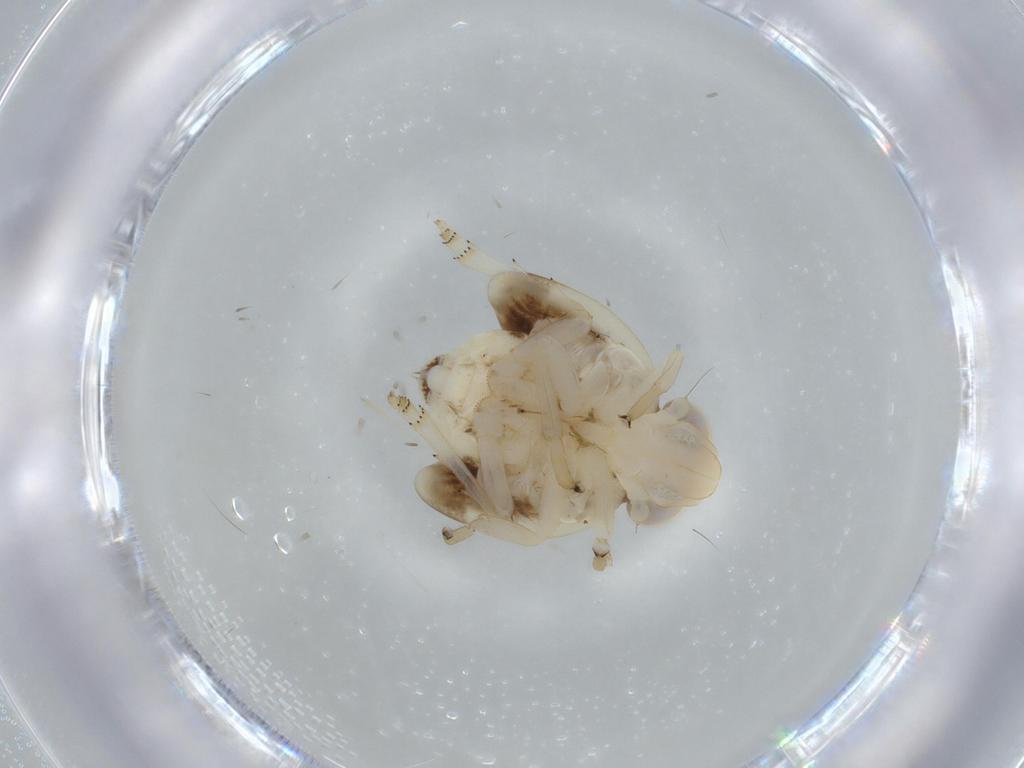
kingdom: Animalia
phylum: Arthropoda
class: Insecta
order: Hemiptera
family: Nogodinidae
